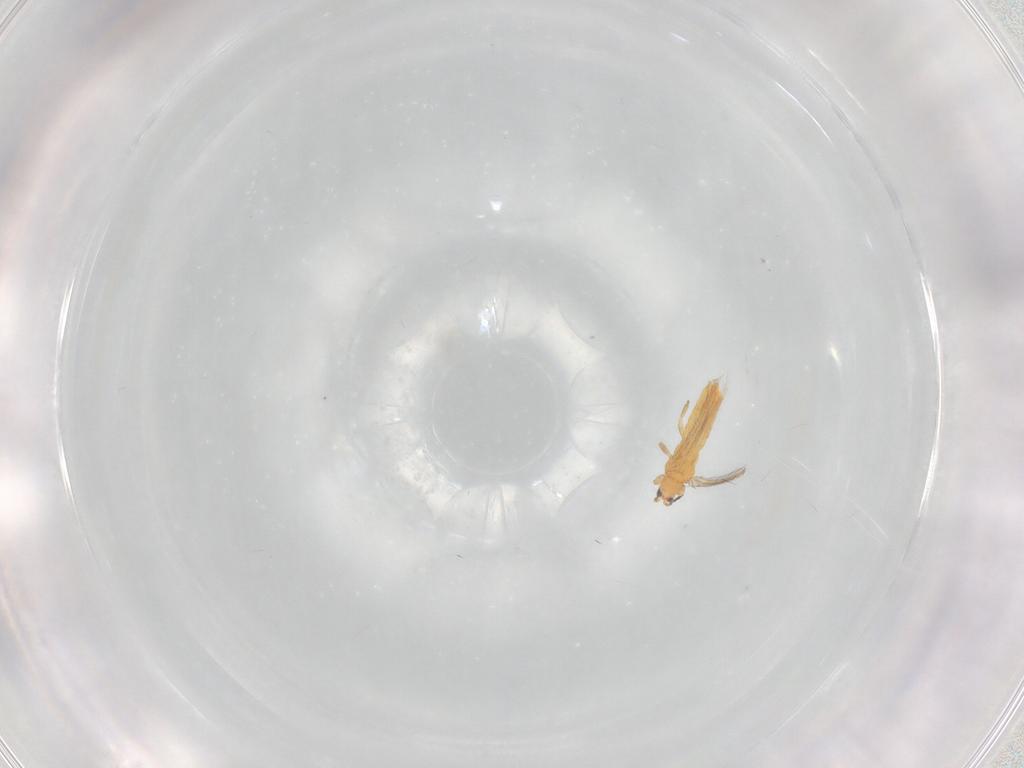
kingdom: Animalia
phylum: Arthropoda
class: Insecta
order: Thysanoptera
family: Thripidae
